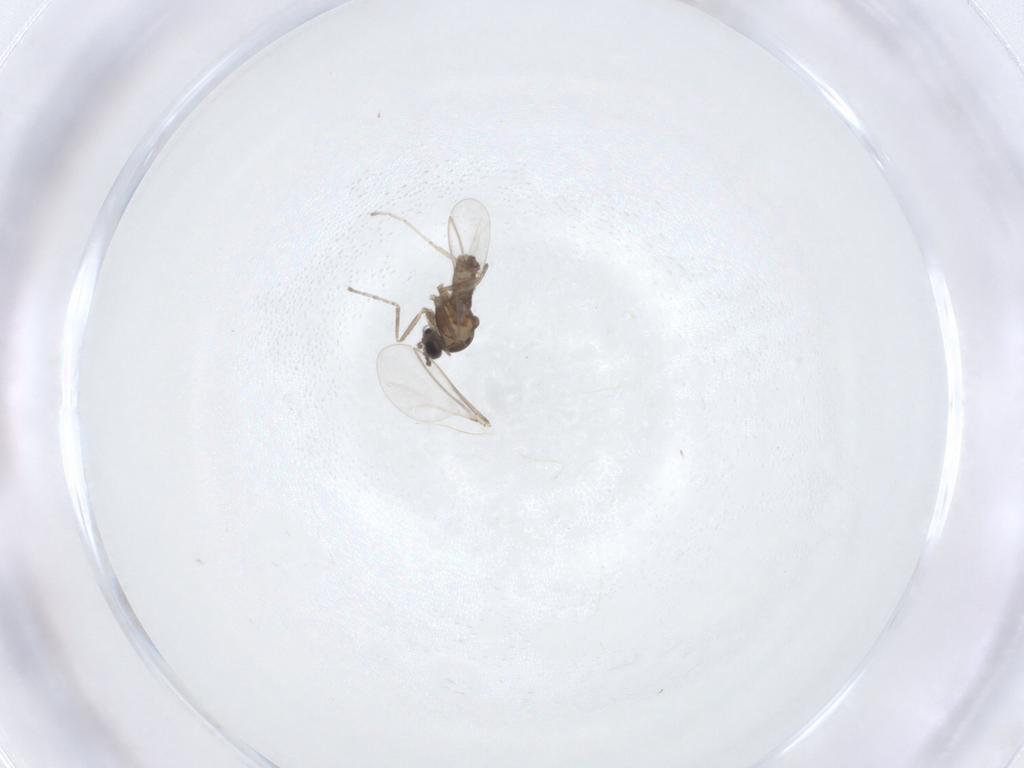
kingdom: Animalia
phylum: Arthropoda
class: Insecta
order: Diptera
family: Cecidomyiidae
